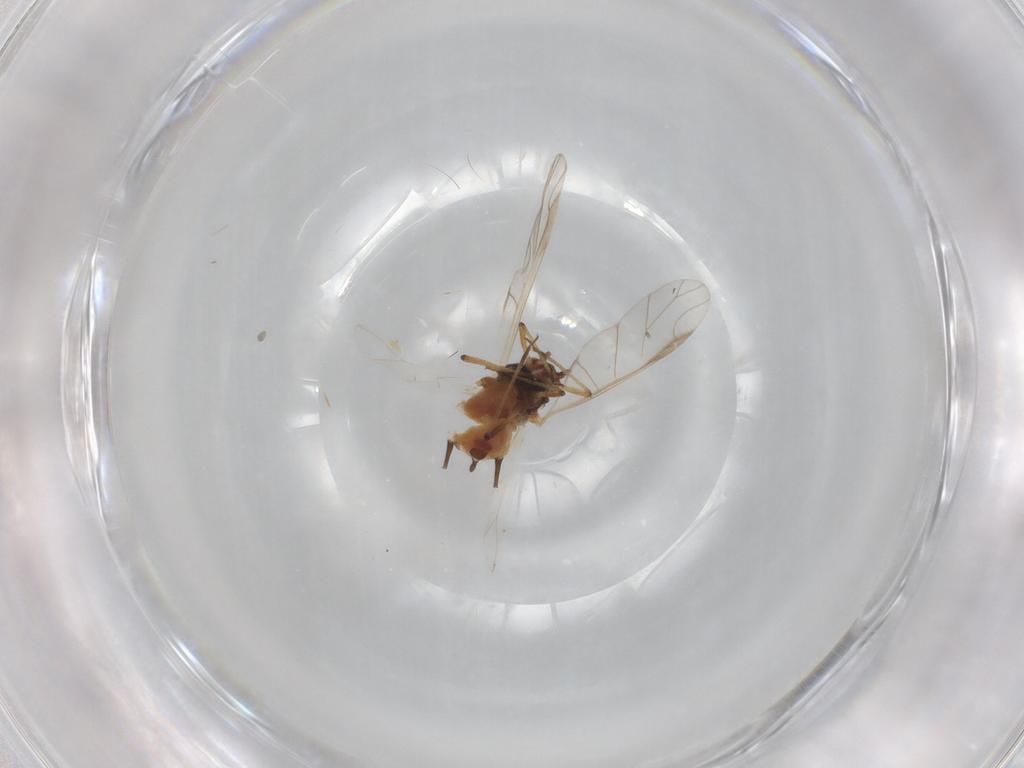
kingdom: Animalia
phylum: Arthropoda
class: Insecta
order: Hemiptera
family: Aphididae
